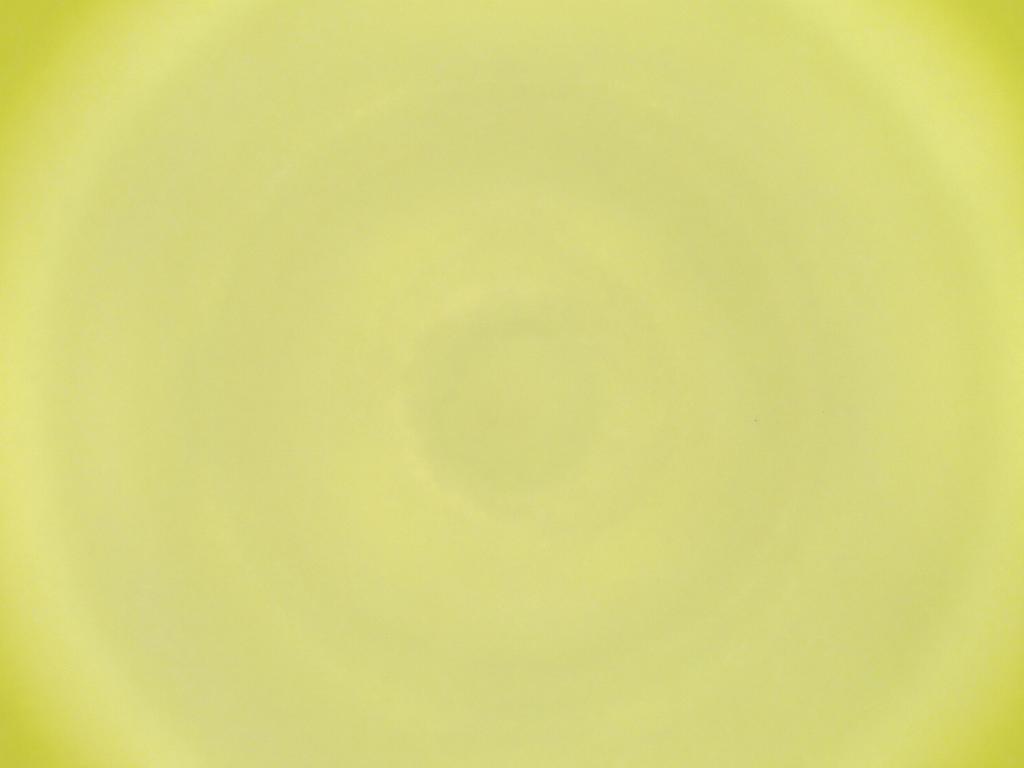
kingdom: Animalia
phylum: Arthropoda
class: Insecta
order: Diptera
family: Cecidomyiidae
